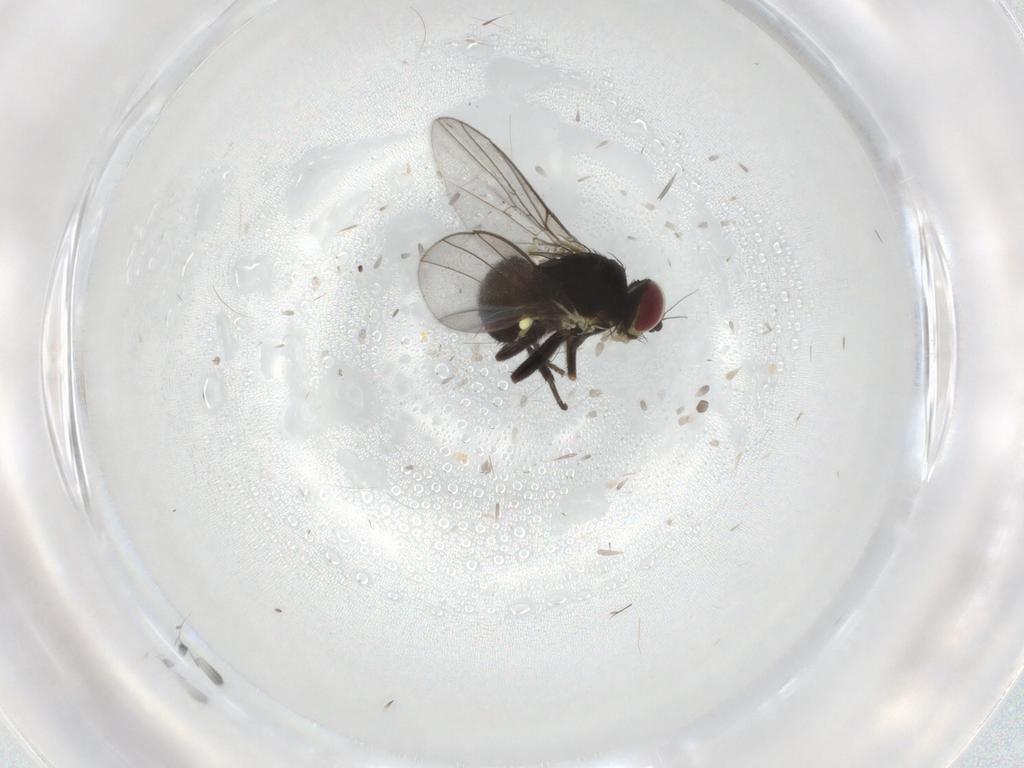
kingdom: Animalia
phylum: Arthropoda
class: Insecta
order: Diptera
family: Agromyzidae
